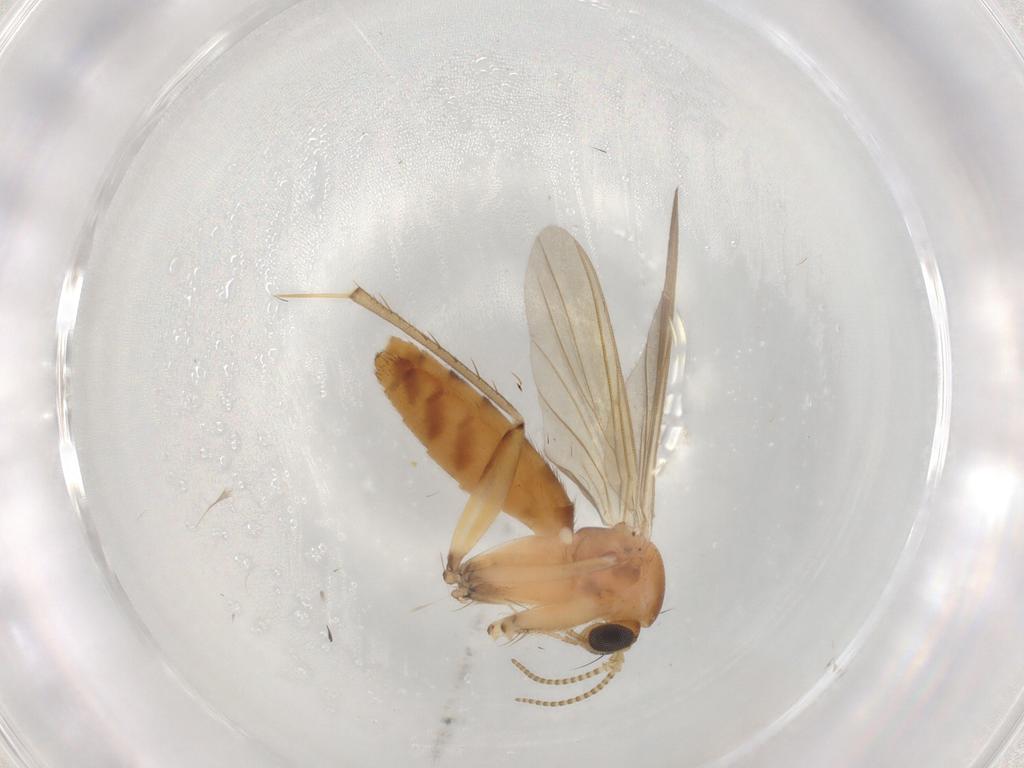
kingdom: Animalia
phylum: Arthropoda
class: Insecta
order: Diptera
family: Mycetophilidae
